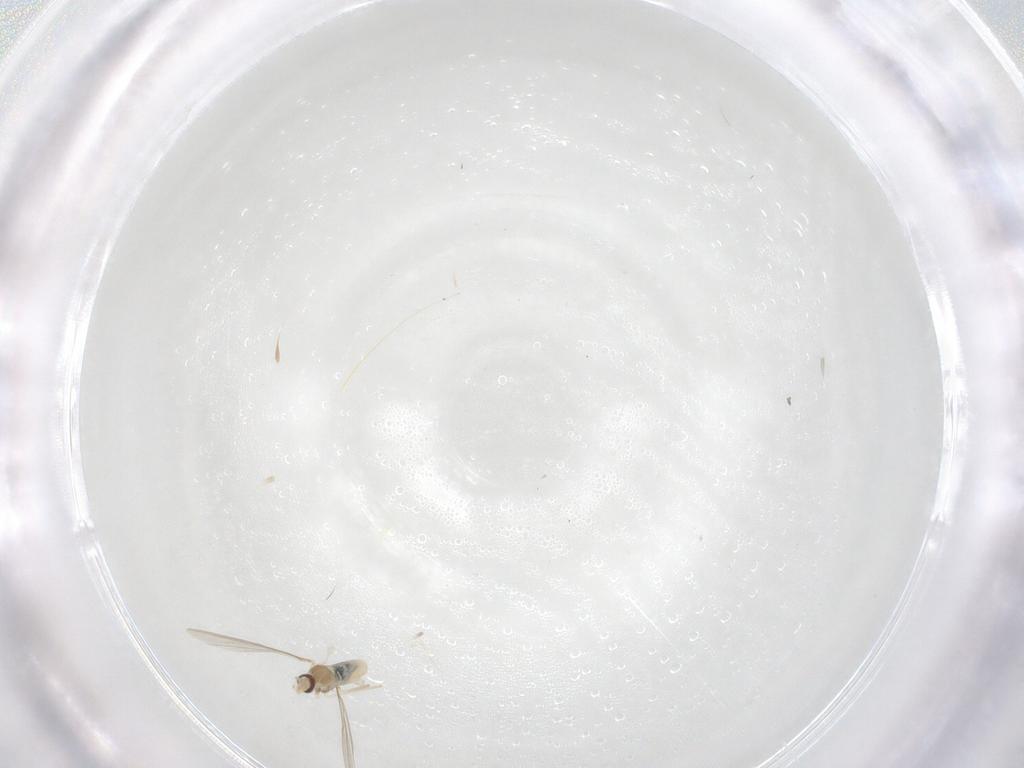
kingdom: Animalia
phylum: Arthropoda
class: Insecta
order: Diptera
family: Cecidomyiidae
